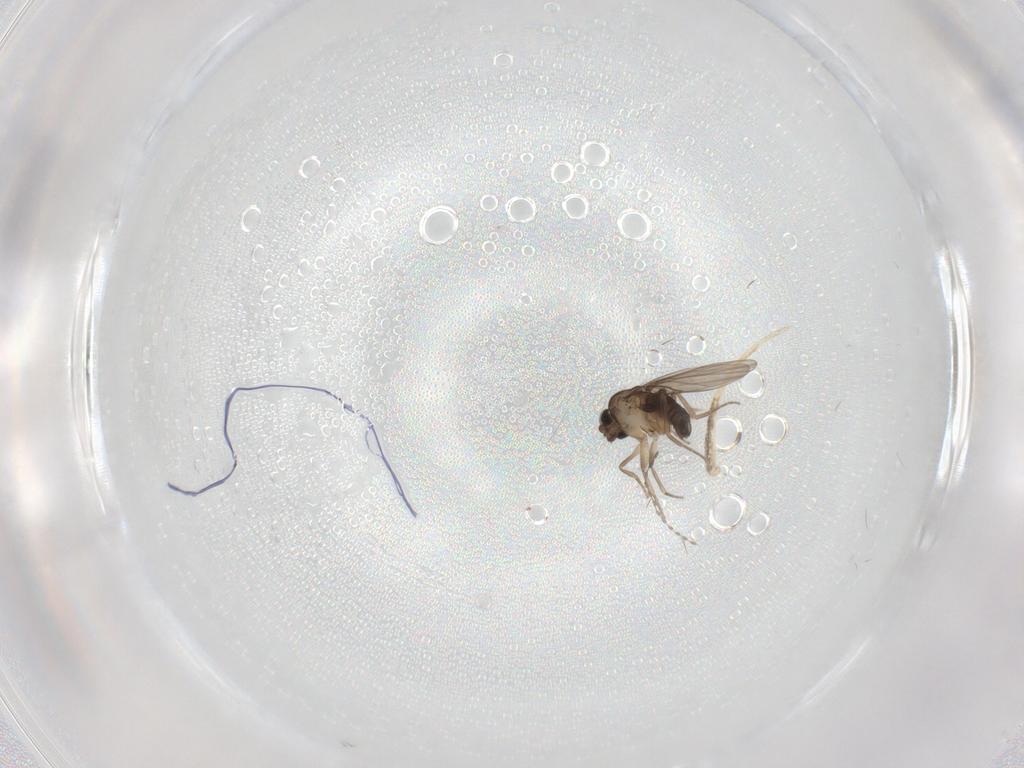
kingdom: Animalia
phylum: Arthropoda
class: Insecta
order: Diptera
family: Phoridae
